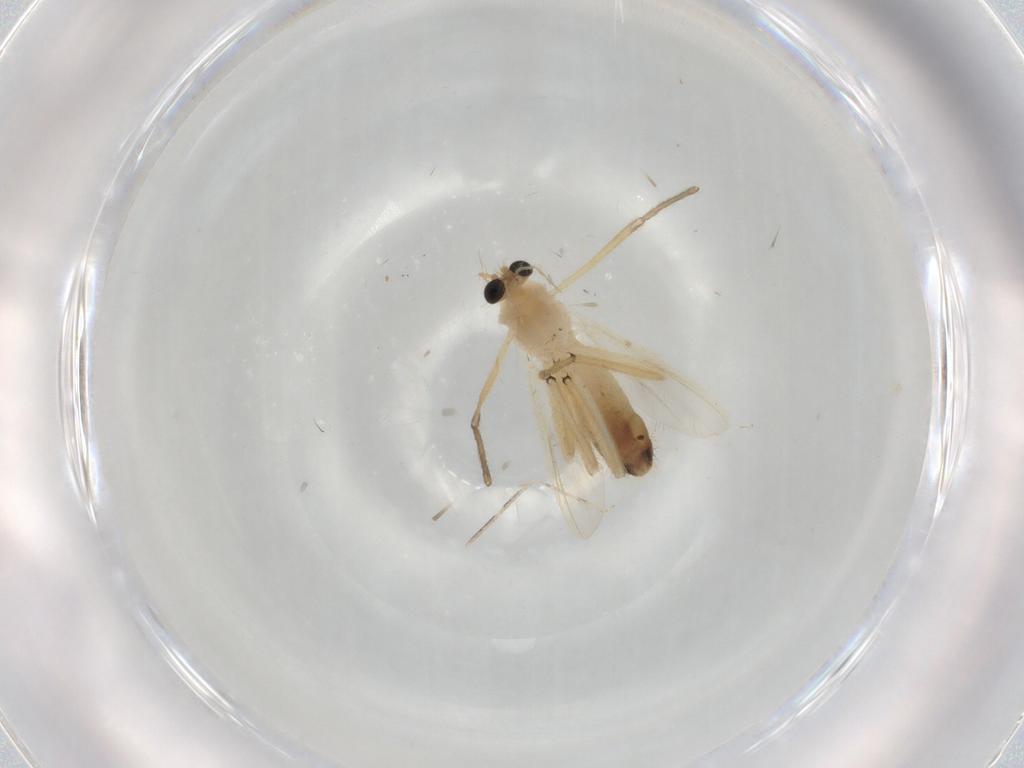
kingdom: Animalia
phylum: Arthropoda
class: Insecta
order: Diptera
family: Chironomidae
